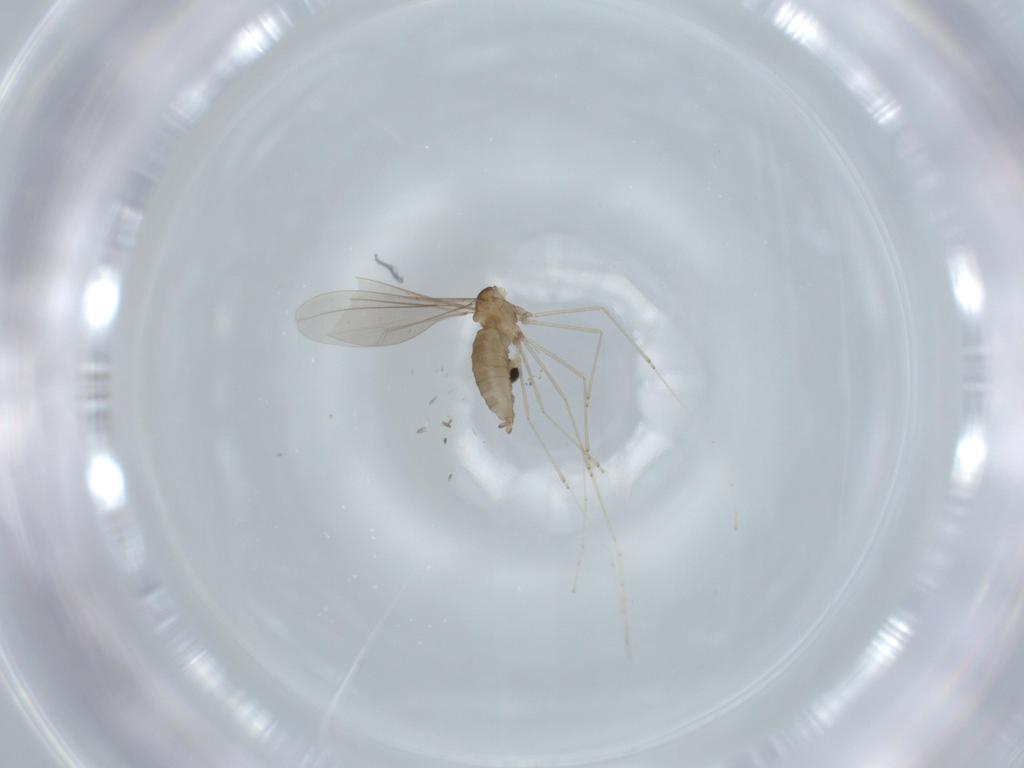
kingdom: Animalia
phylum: Arthropoda
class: Insecta
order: Diptera
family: Cecidomyiidae
